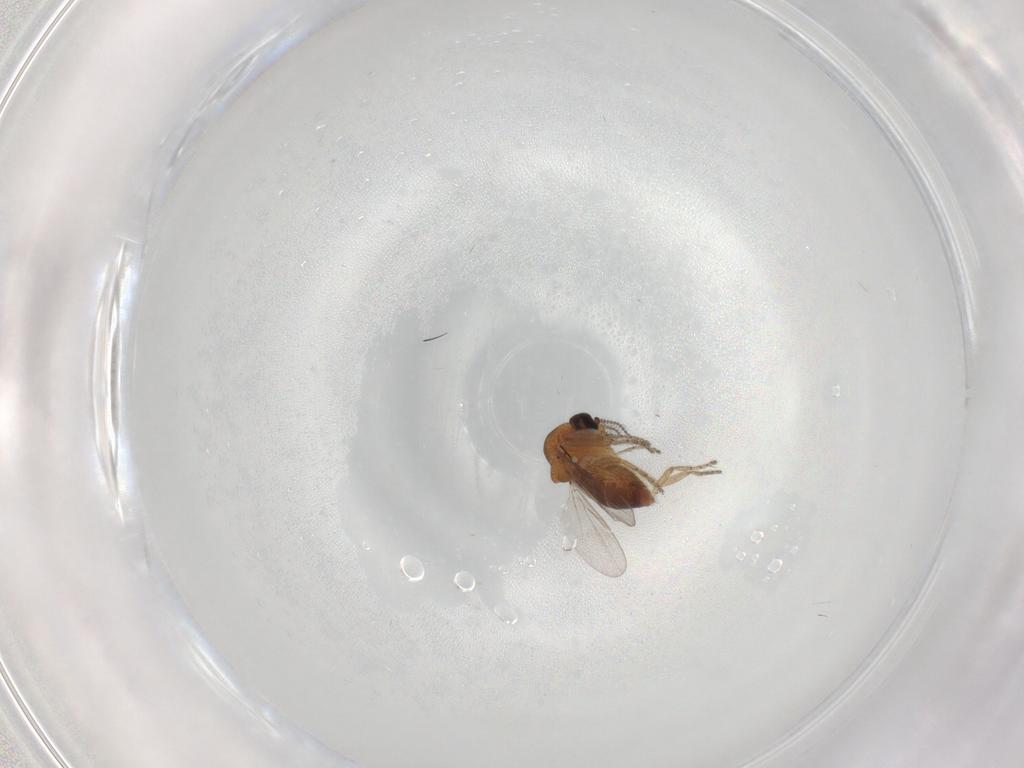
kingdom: Animalia
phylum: Arthropoda
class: Insecta
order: Diptera
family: Ceratopogonidae
